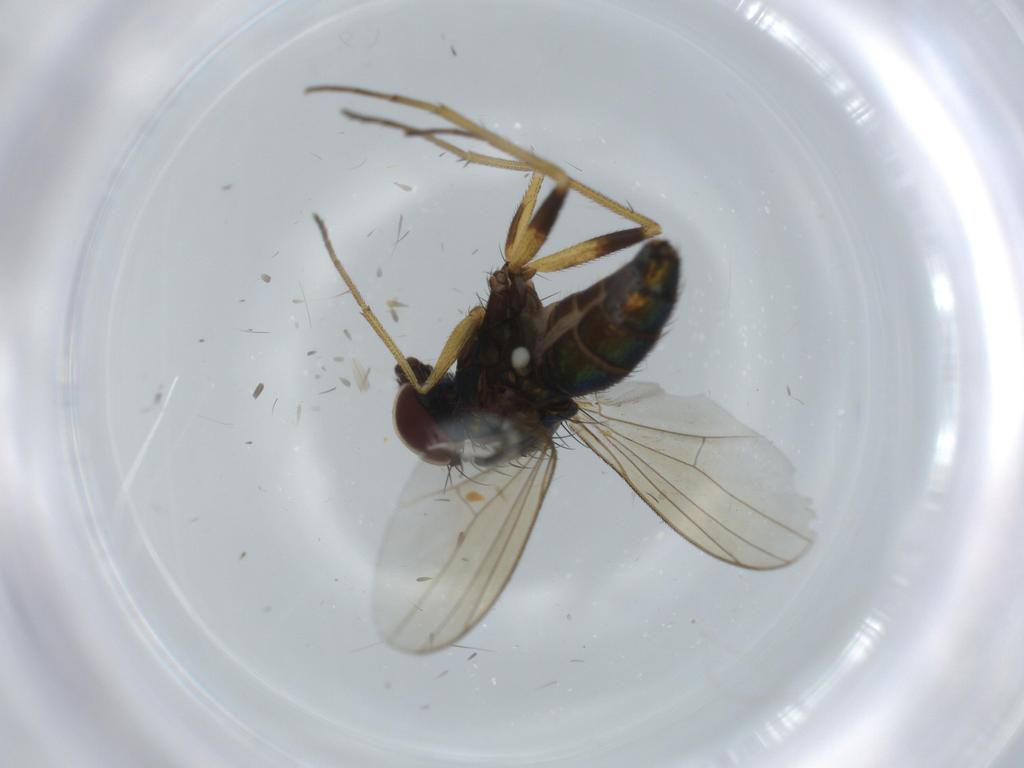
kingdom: Animalia
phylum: Arthropoda
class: Insecta
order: Diptera
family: Dolichopodidae
